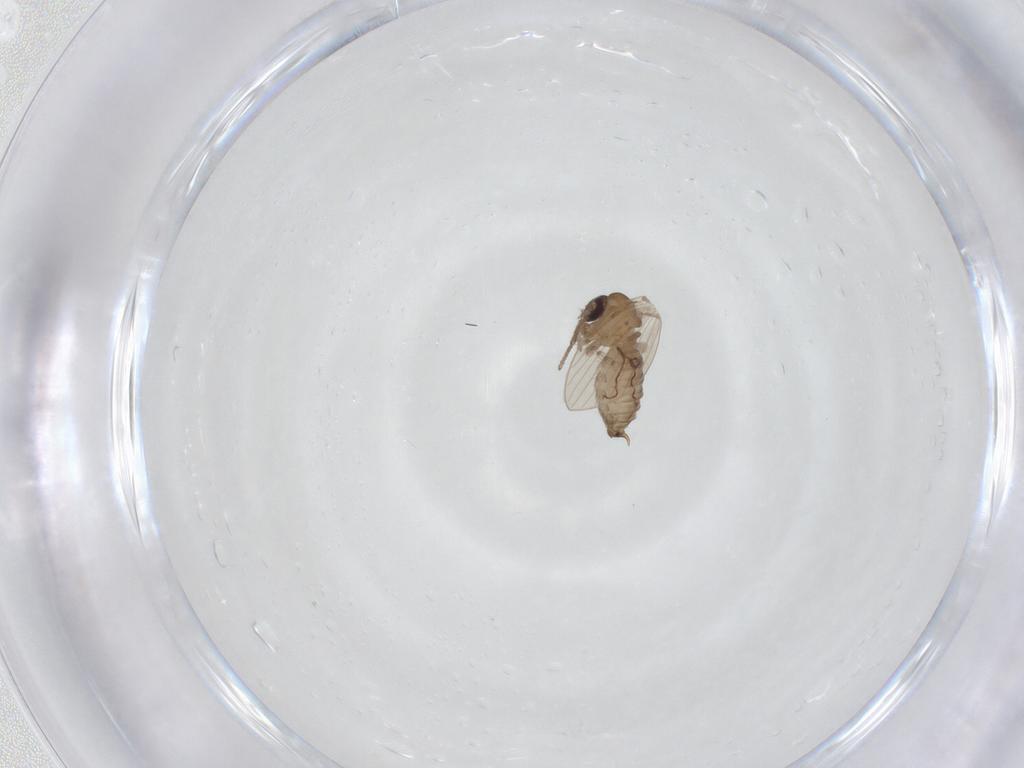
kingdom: Animalia
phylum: Arthropoda
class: Insecta
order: Diptera
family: Psychodidae
